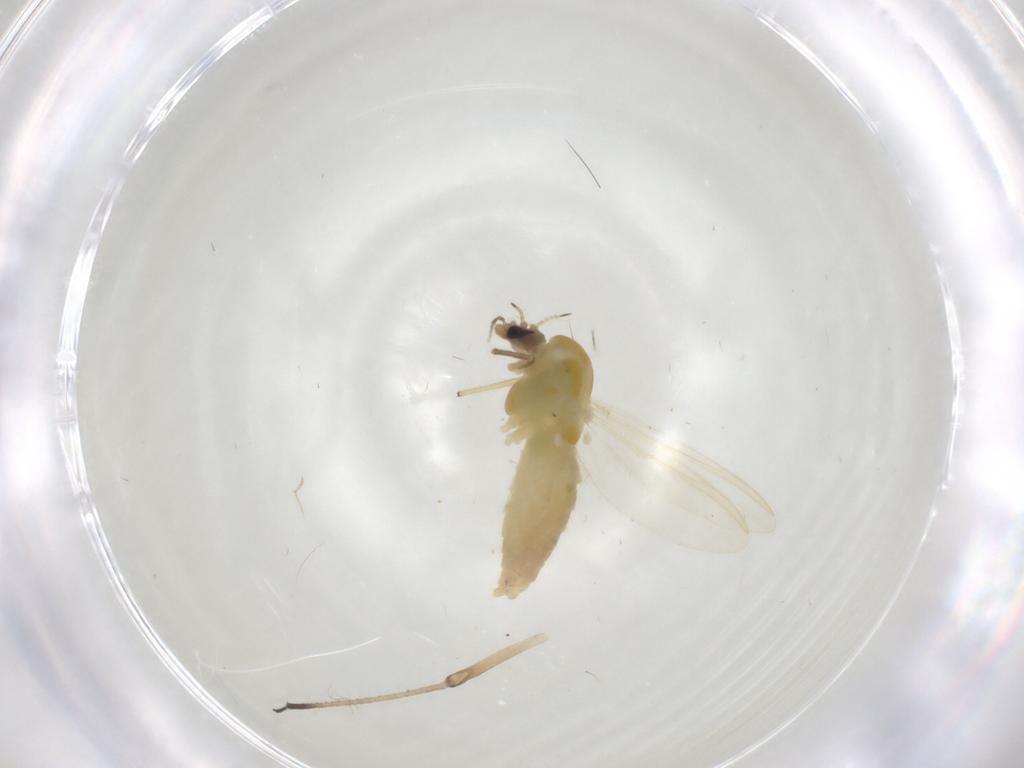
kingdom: Animalia
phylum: Arthropoda
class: Insecta
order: Diptera
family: Chironomidae
